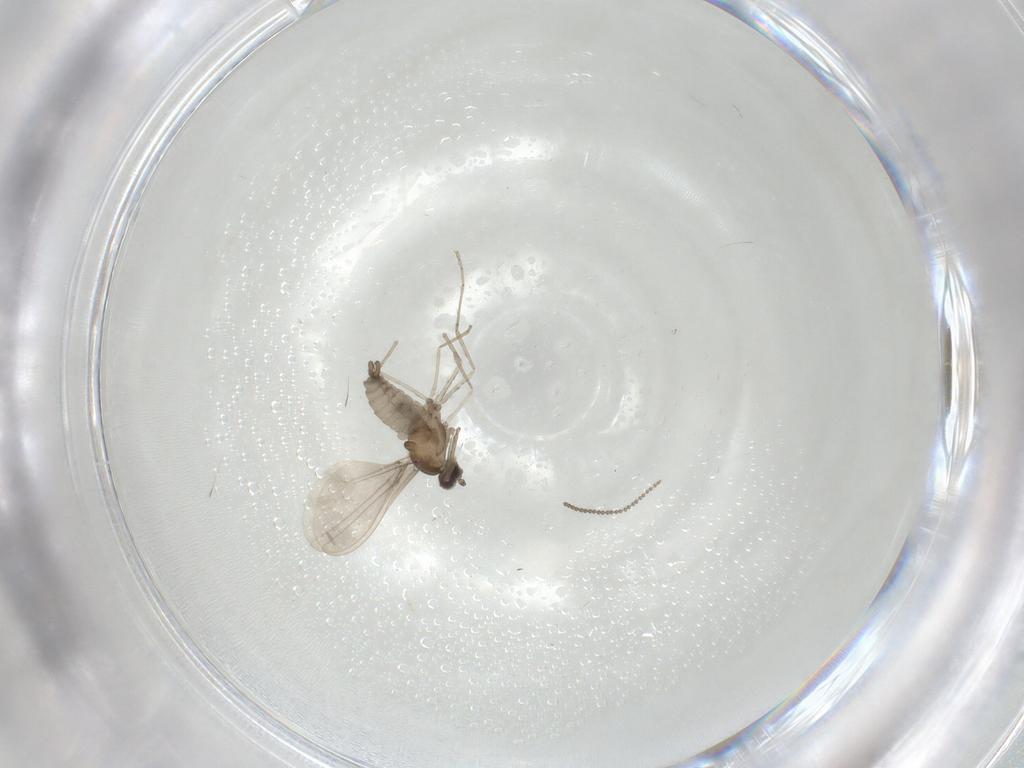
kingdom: Animalia
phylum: Arthropoda
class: Insecta
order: Diptera
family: Cecidomyiidae
